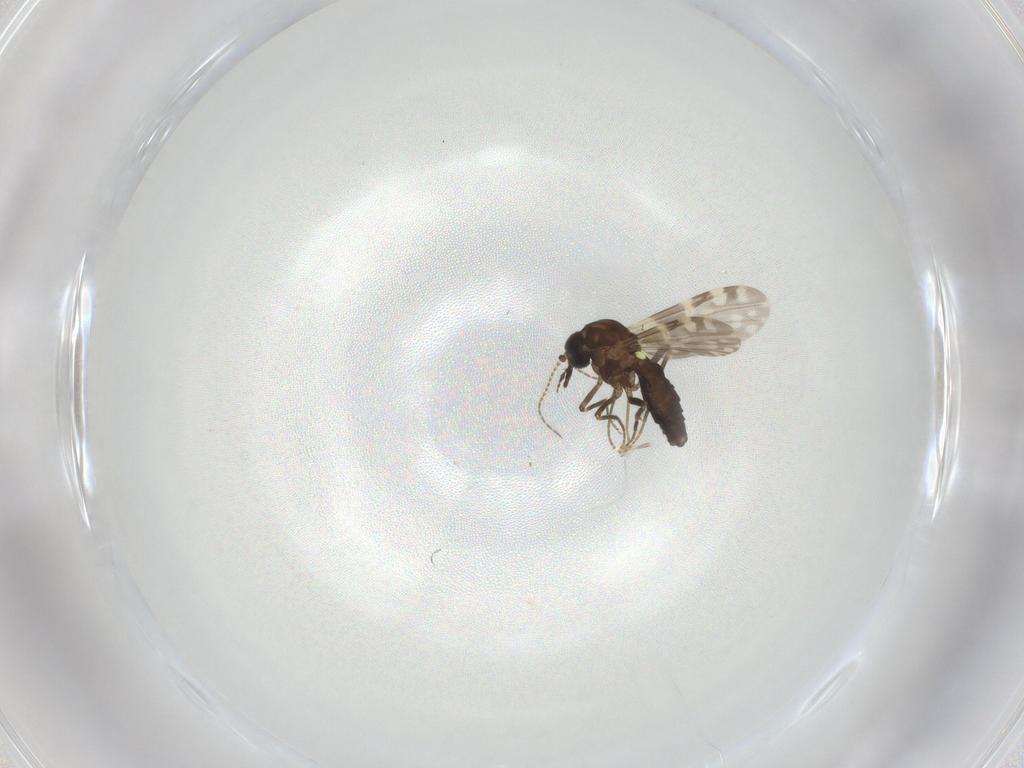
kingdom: Animalia
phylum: Arthropoda
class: Insecta
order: Diptera
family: Ceratopogonidae
